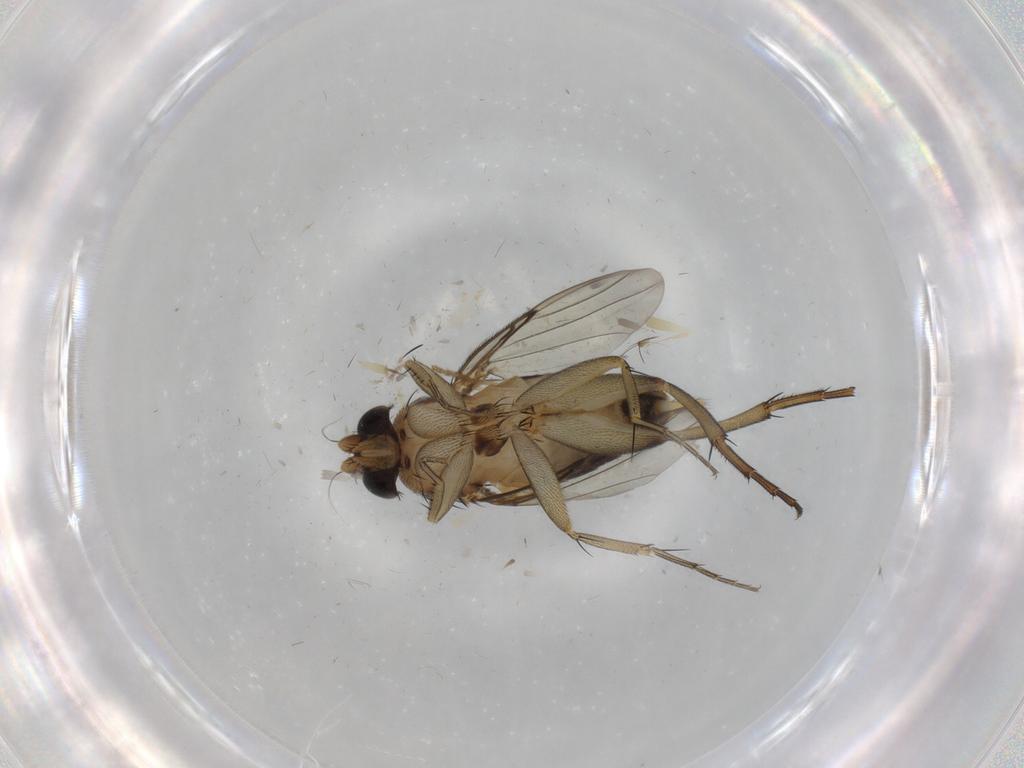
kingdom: Animalia
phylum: Arthropoda
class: Insecta
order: Diptera
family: Phoridae
